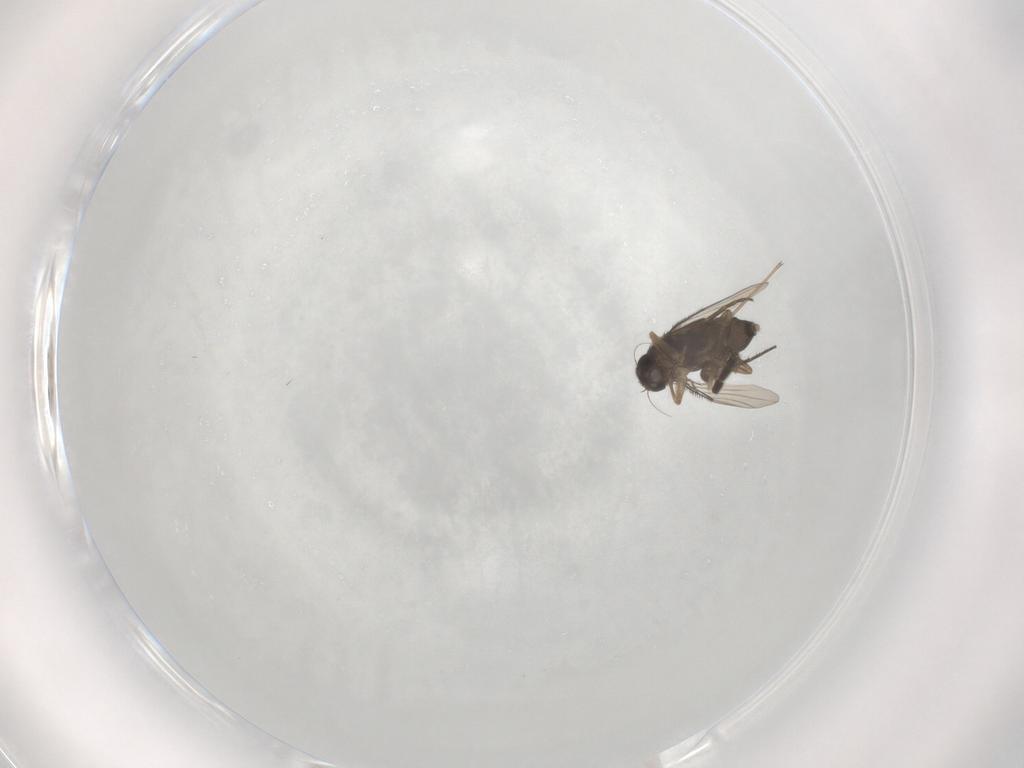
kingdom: Animalia
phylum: Arthropoda
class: Insecta
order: Diptera
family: Phoridae
